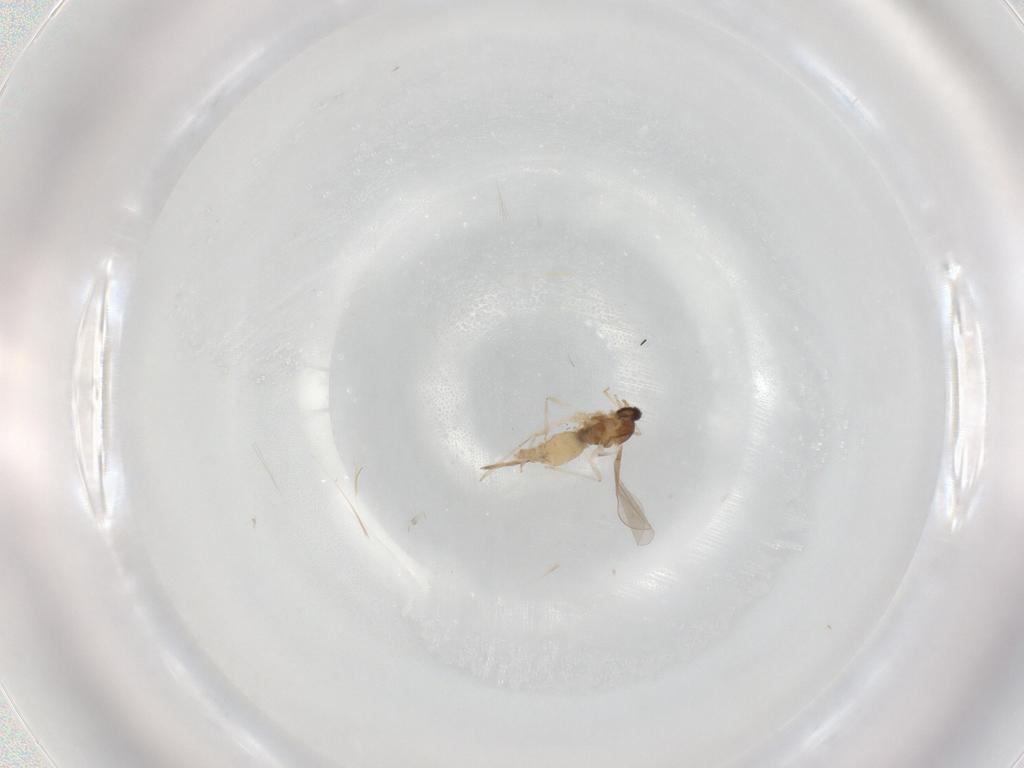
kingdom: Animalia
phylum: Arthropoda
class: Insecta
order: Diptera
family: Cecidomyiidae
